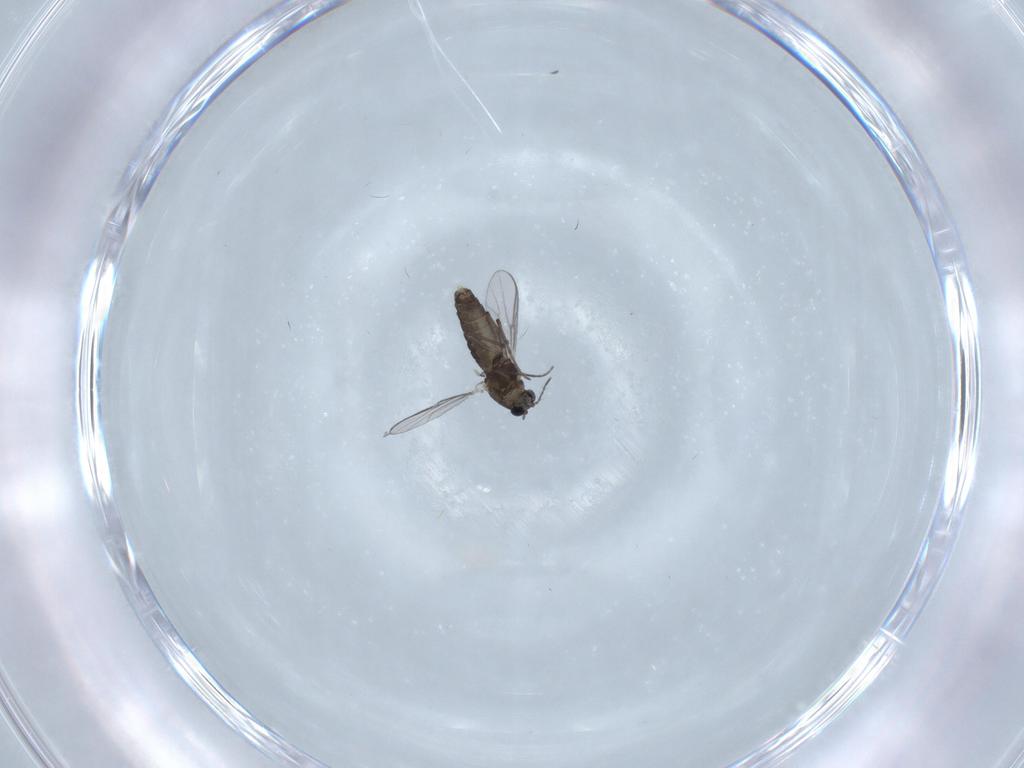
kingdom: Animalia
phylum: Arthropoda
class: Insecta
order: Diptera
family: Chironomidae
